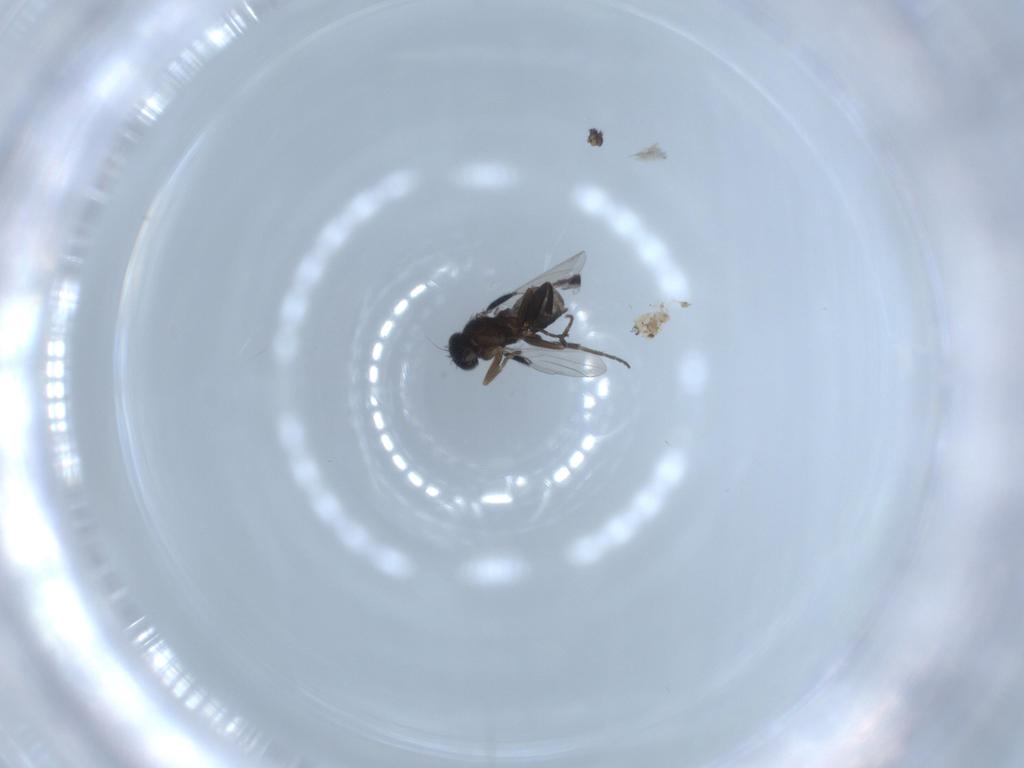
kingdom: Animalia
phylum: Arthropoda
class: Insecta
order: Diptera
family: Phoridae
